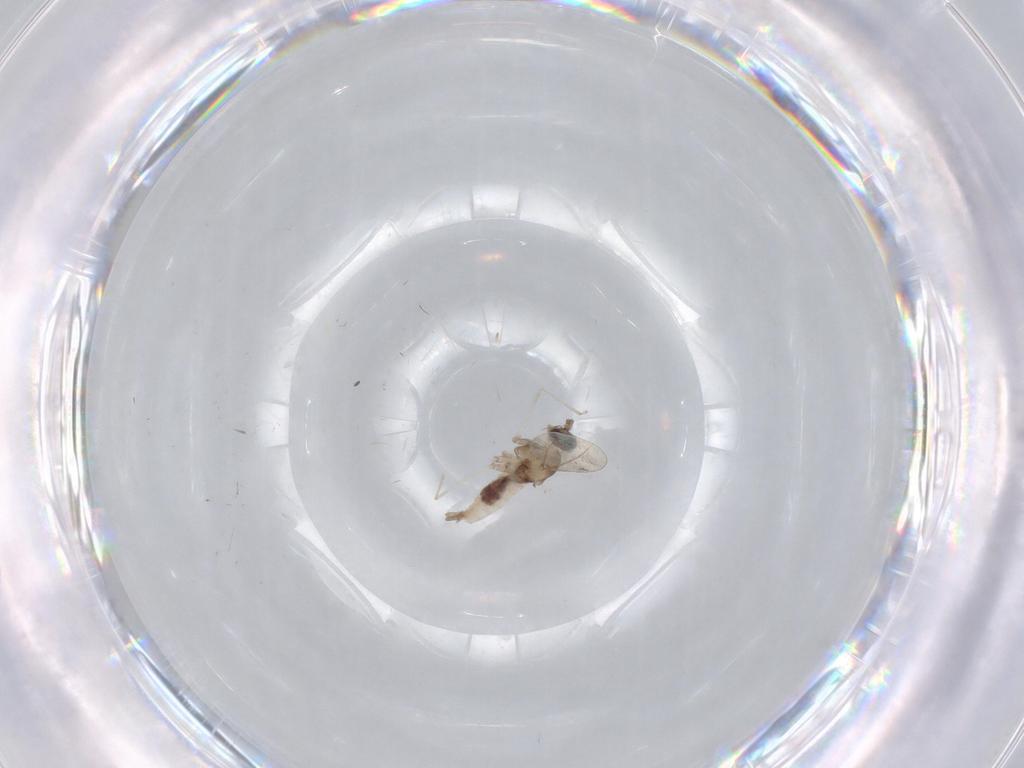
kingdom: Animalia
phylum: Arthropoda
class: Insecta
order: Diptera
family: Cecidomyiidae
